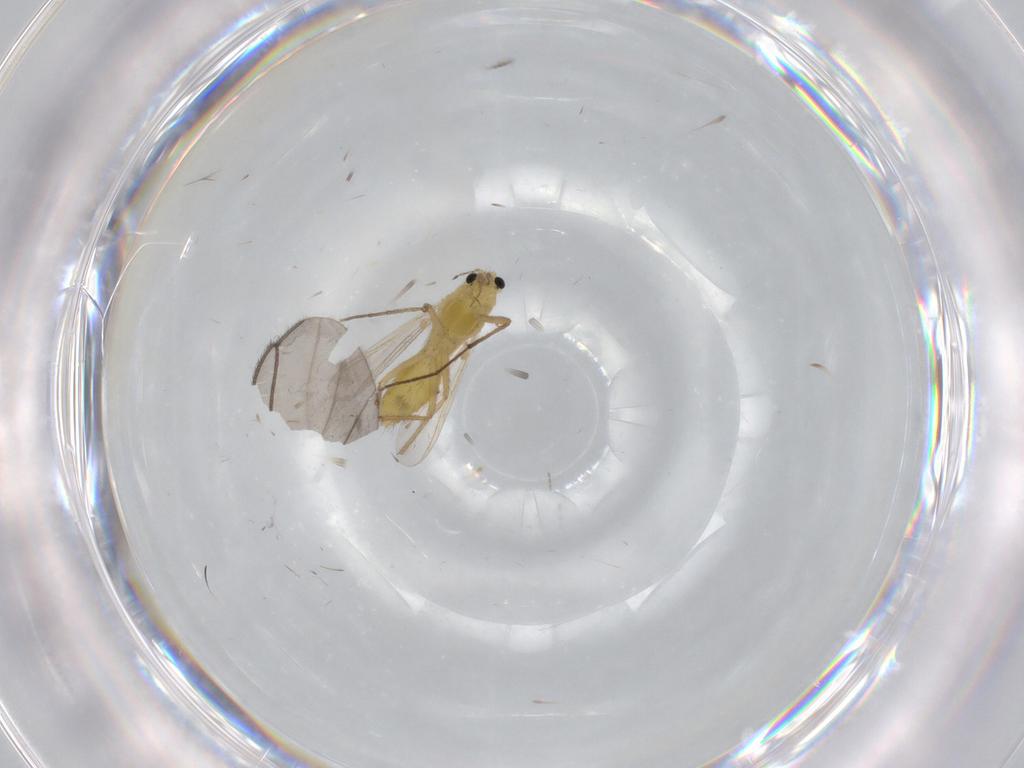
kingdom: Animalia
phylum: Arthropoda
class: Insecta
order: Diptera
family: Chironomidae
